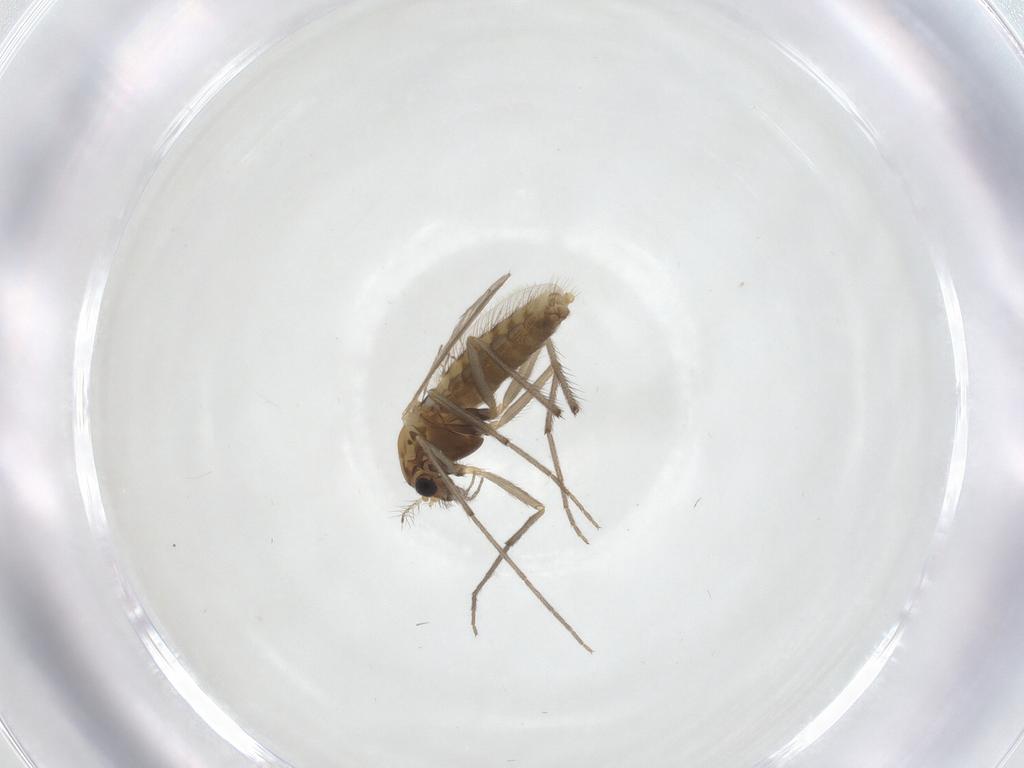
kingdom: Animalia
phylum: Arthropoda
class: Insecta
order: Diptera
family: Chironomidae
